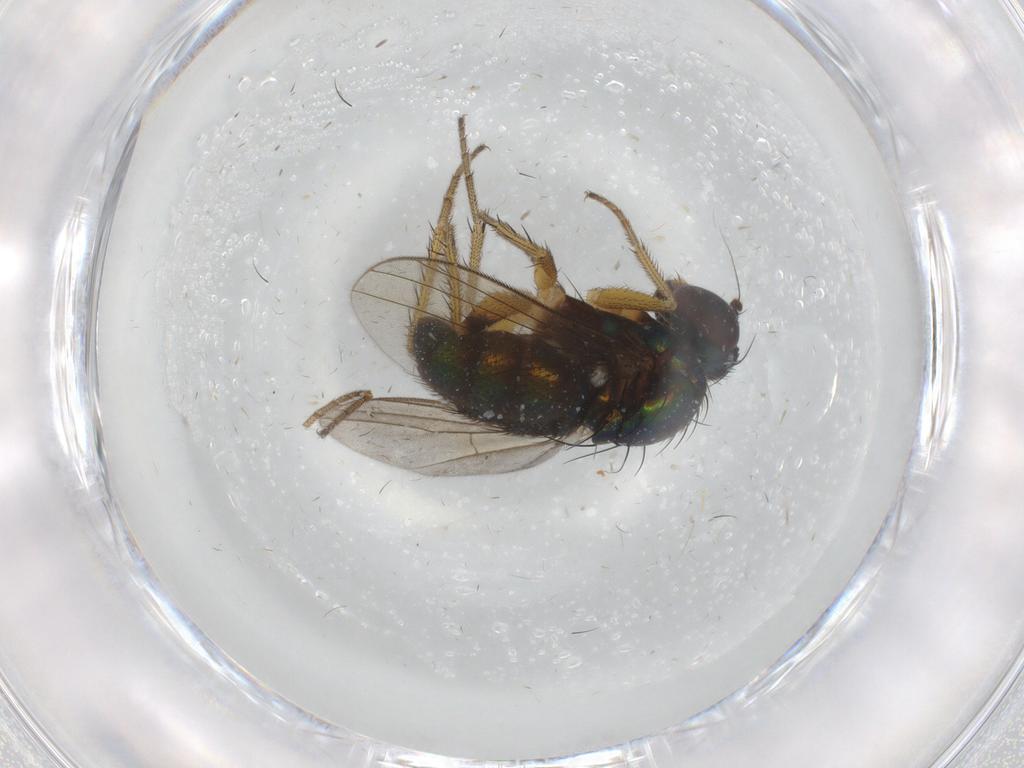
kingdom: Animalia
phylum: Arthropoda
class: Insecta
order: Diptera
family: Dolichopodidae
